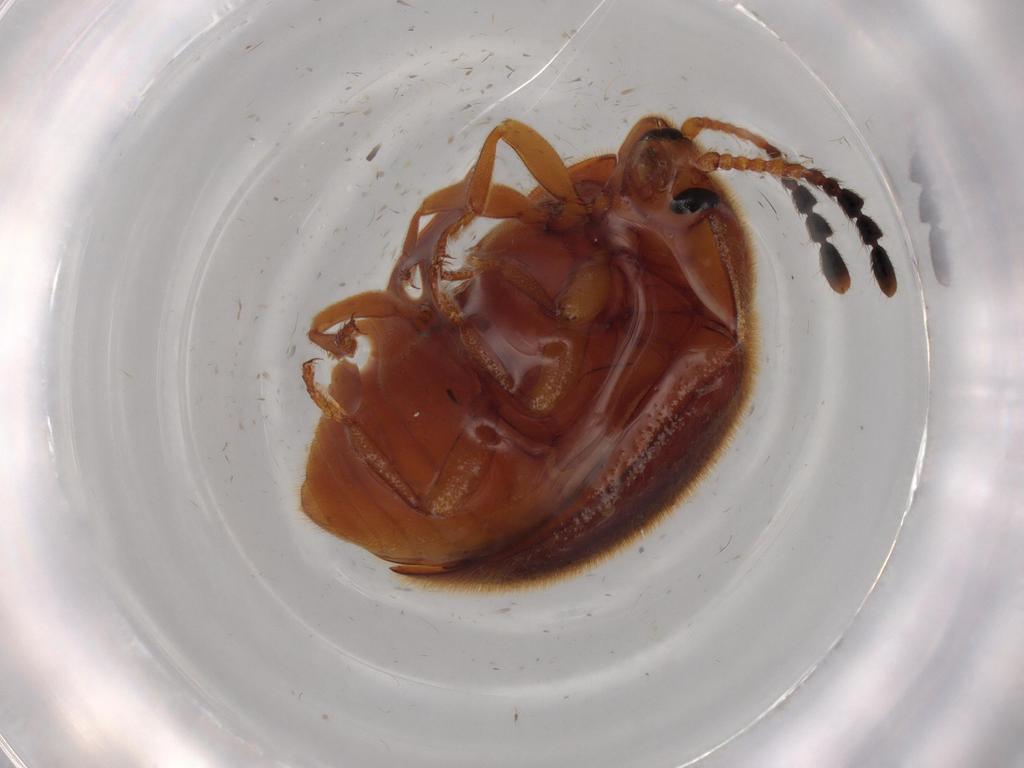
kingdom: Animalia
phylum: Arthropoda
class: Insecta
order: Coleoptera
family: Endomychidae
